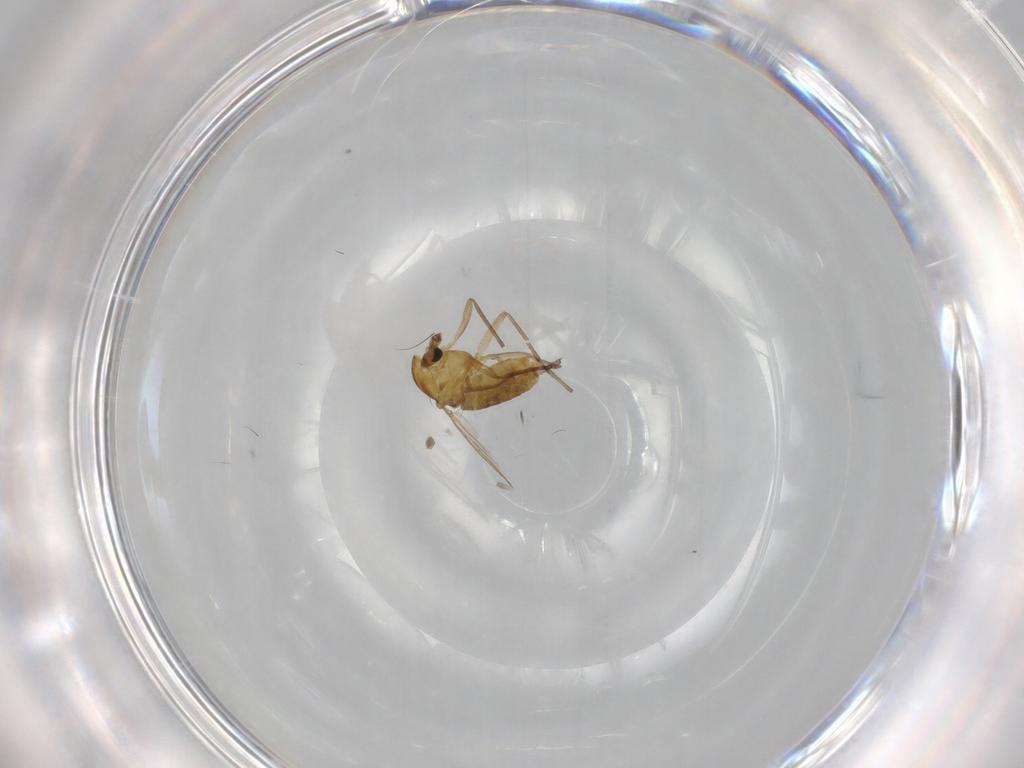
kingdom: Animalia
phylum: Arthropoda
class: Insecta
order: Diptera
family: Chironomidae
